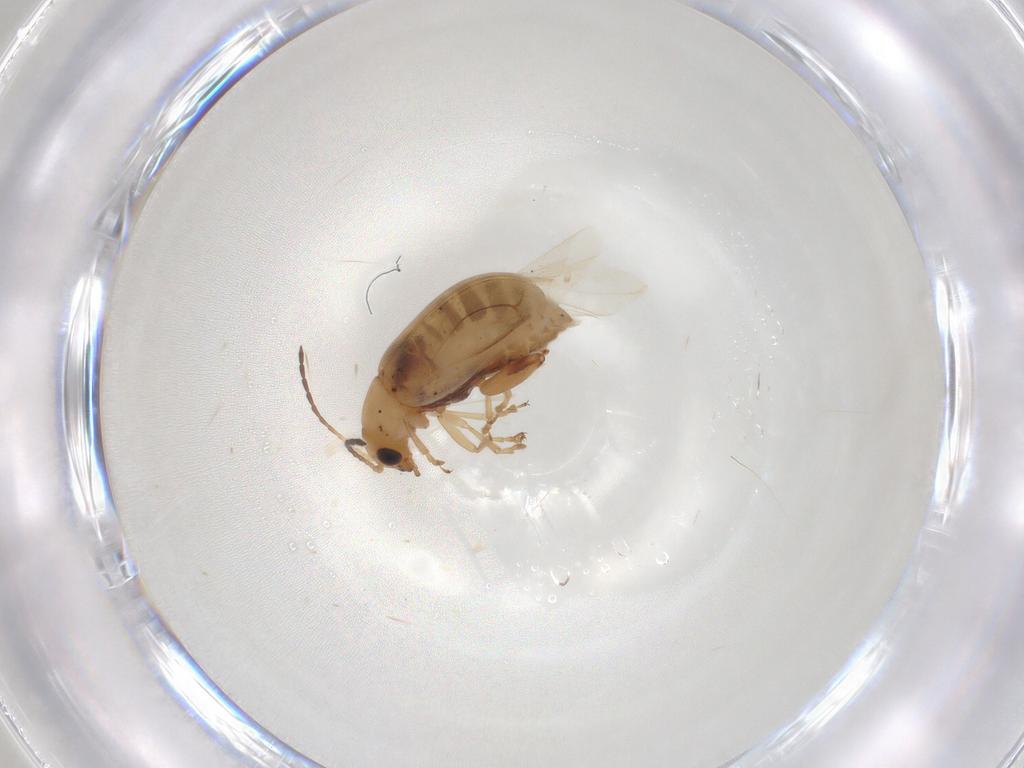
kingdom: Animalia
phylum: Arthropoda
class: Insecta
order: Coleoptera
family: Chrysomelidae
